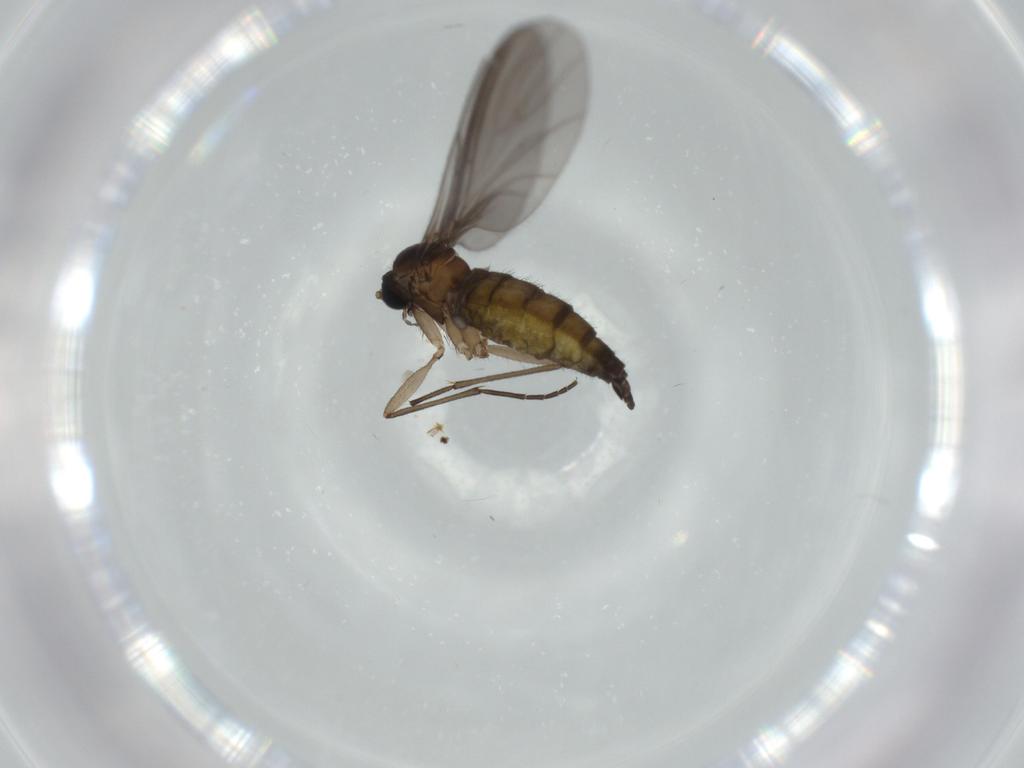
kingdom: Animalia
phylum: Arthropoda
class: Insecta
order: Diptera
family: Sciaridae
